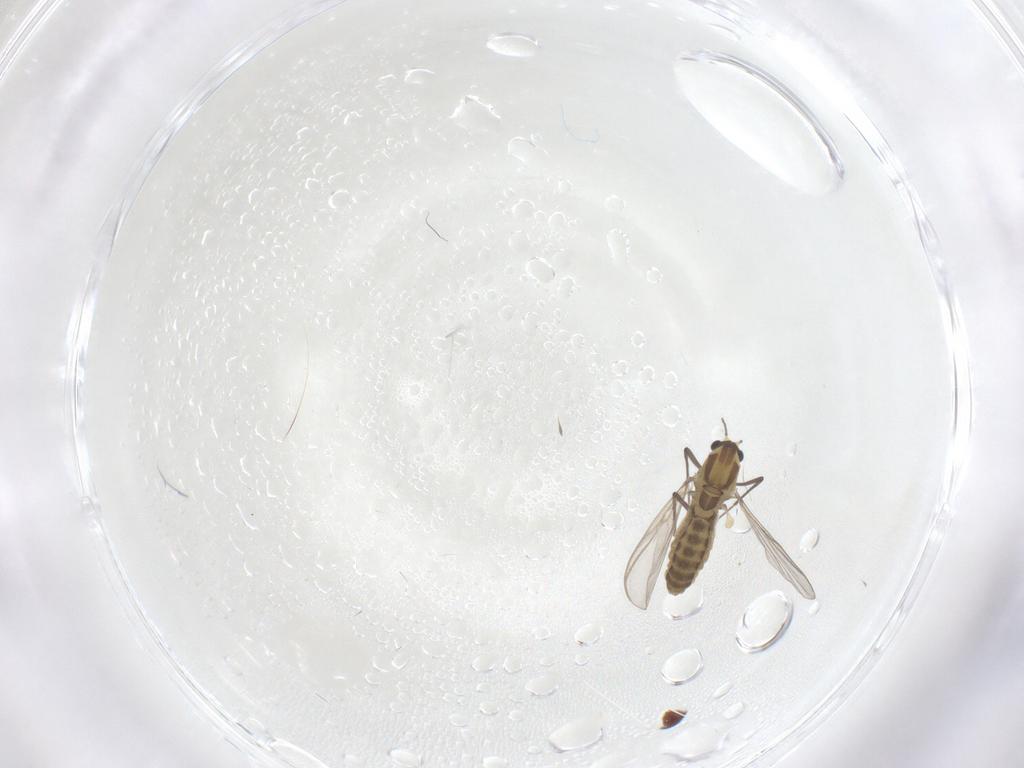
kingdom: Animalia
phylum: Arthropoda
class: Insecta
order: Diptera
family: Chironomidae
